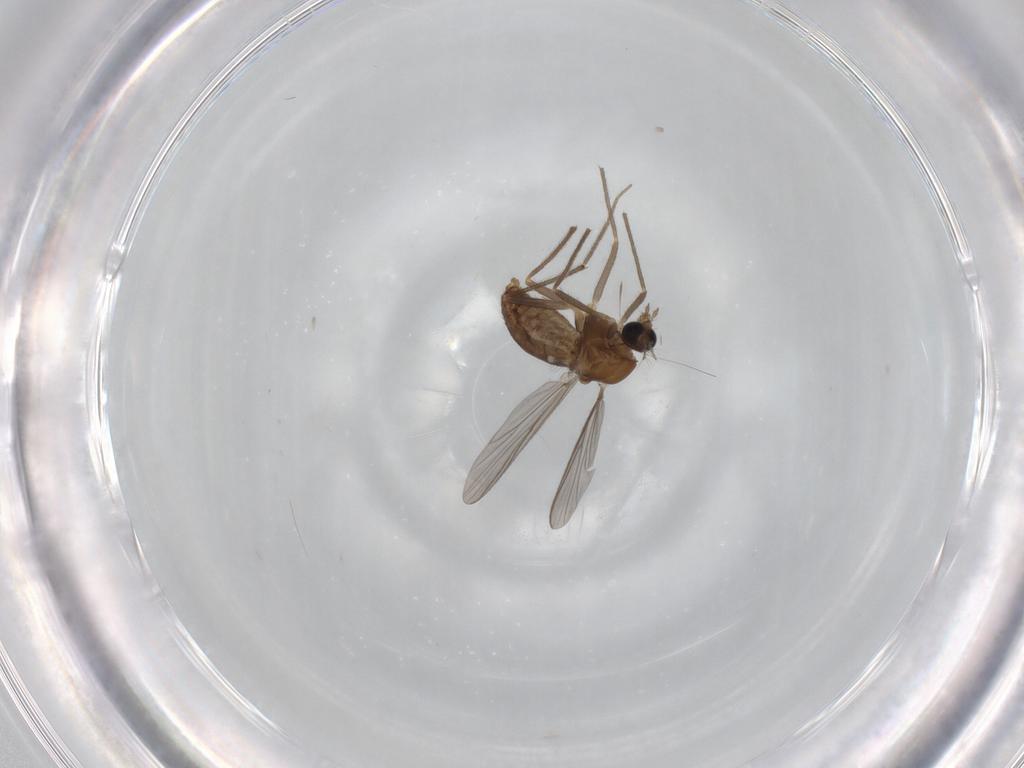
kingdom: Animalia
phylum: Arthropoda
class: Insecta
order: Diptera
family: Chironomidae
